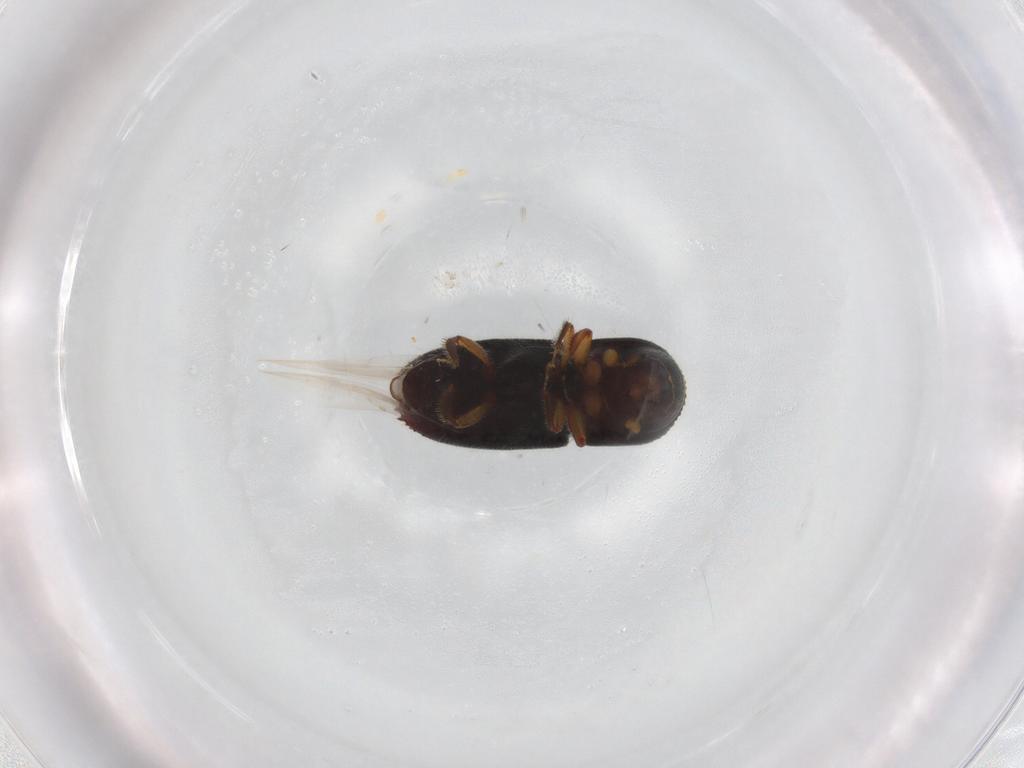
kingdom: Animalia
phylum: Arthropoda
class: Insecta
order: Coleoptera
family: Curculionidae
